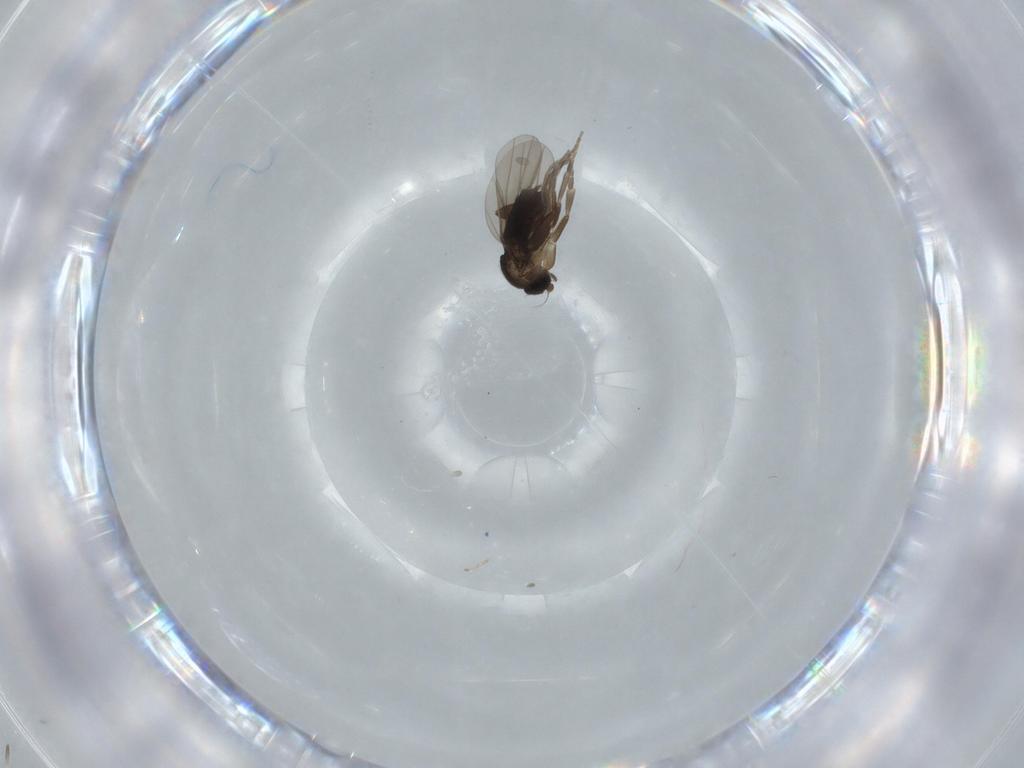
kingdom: Animalia
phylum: Arthropoda
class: Insecta
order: Diptera
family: Phoridae
